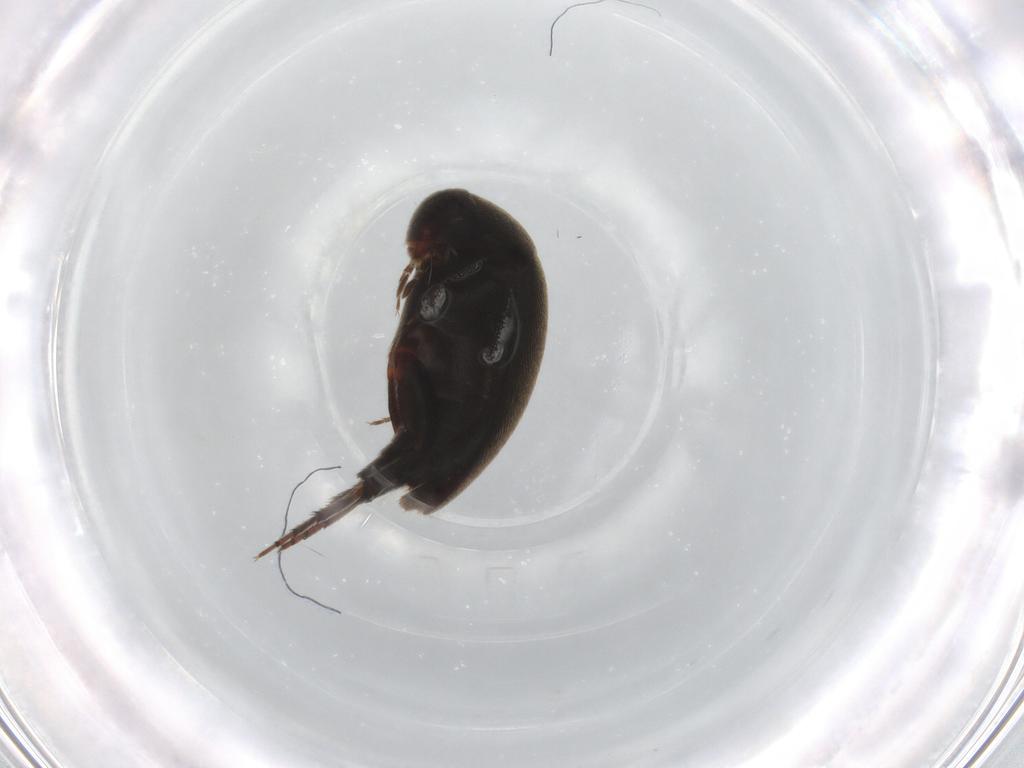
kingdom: Animalia
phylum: Arthropoda
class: Insecta
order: Coleoptera
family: Mordellidae
